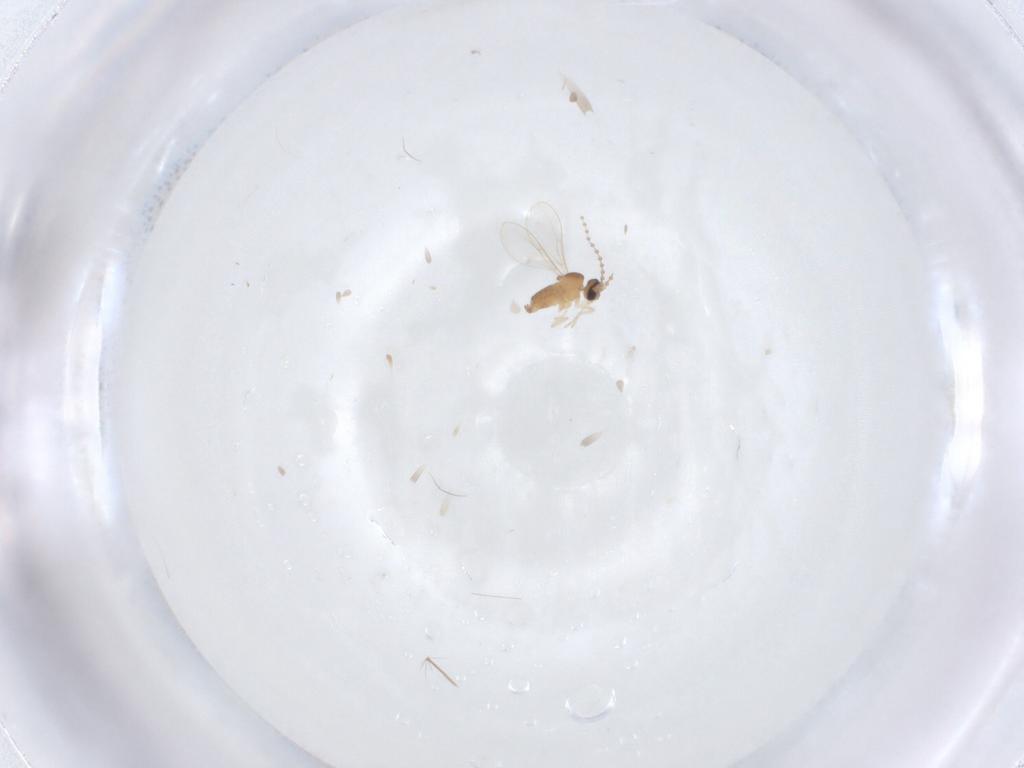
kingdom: Animalia
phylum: Arthropoda
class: Insecta
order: Diptera
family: Cecidomyiidae
